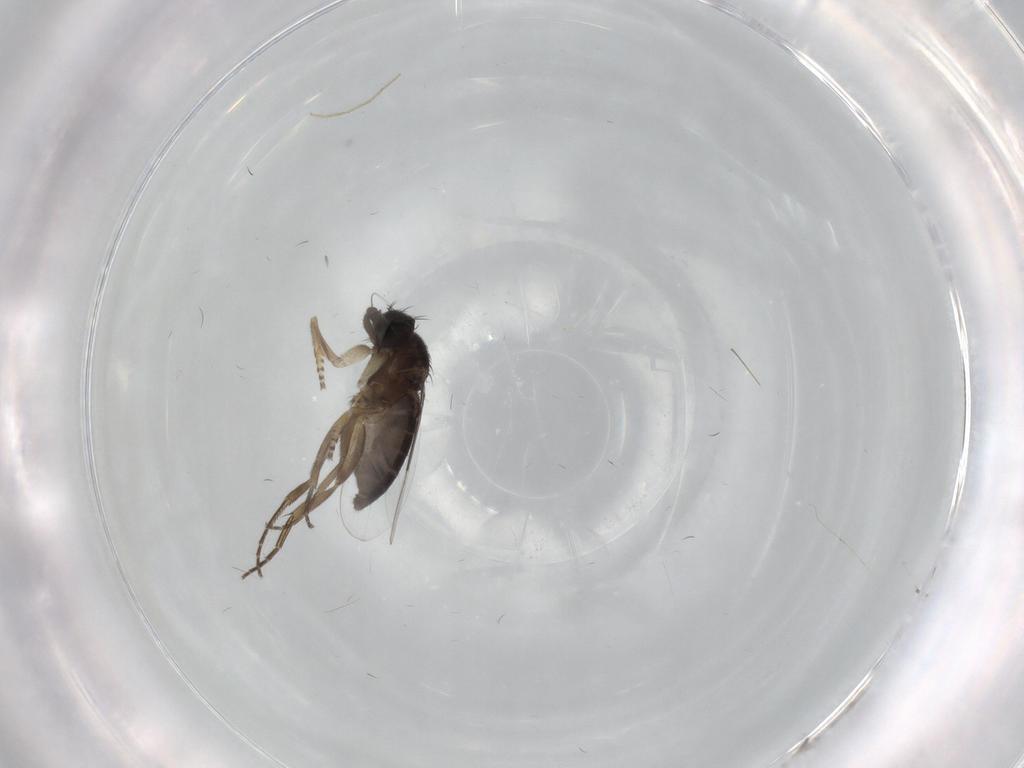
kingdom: Animalia
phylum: Arthropoda
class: Insecta
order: Diptera
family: Phoridae
